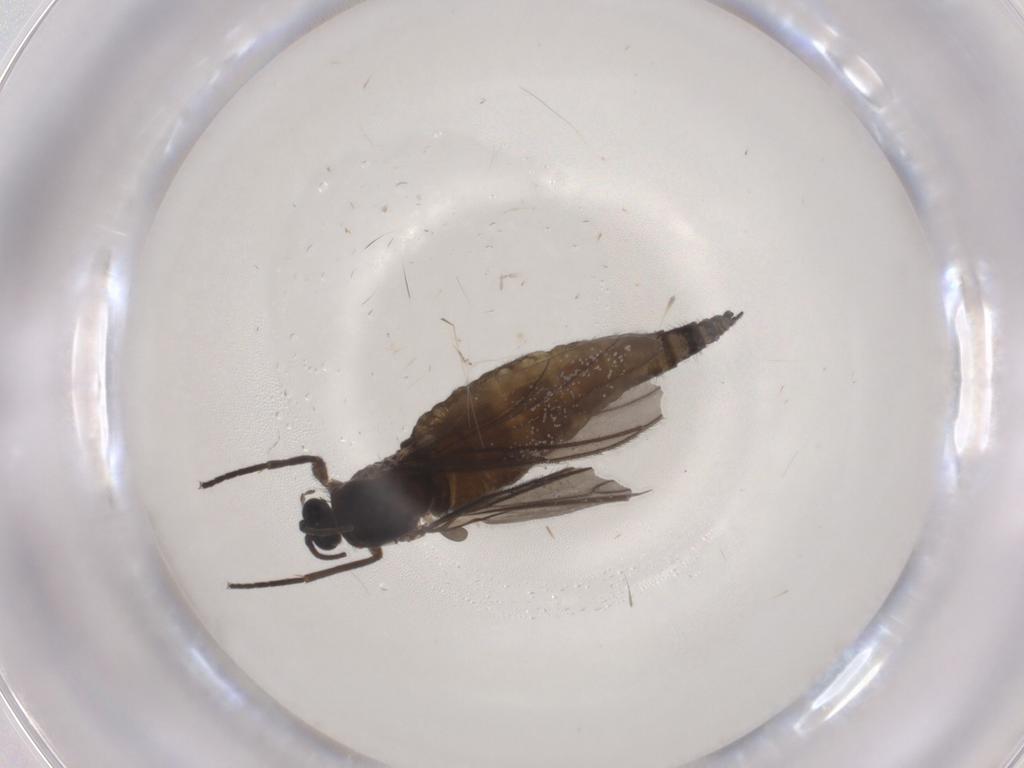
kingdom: Animalia
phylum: Arthropoda
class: Insecta
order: Diptera
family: Sciaridae
